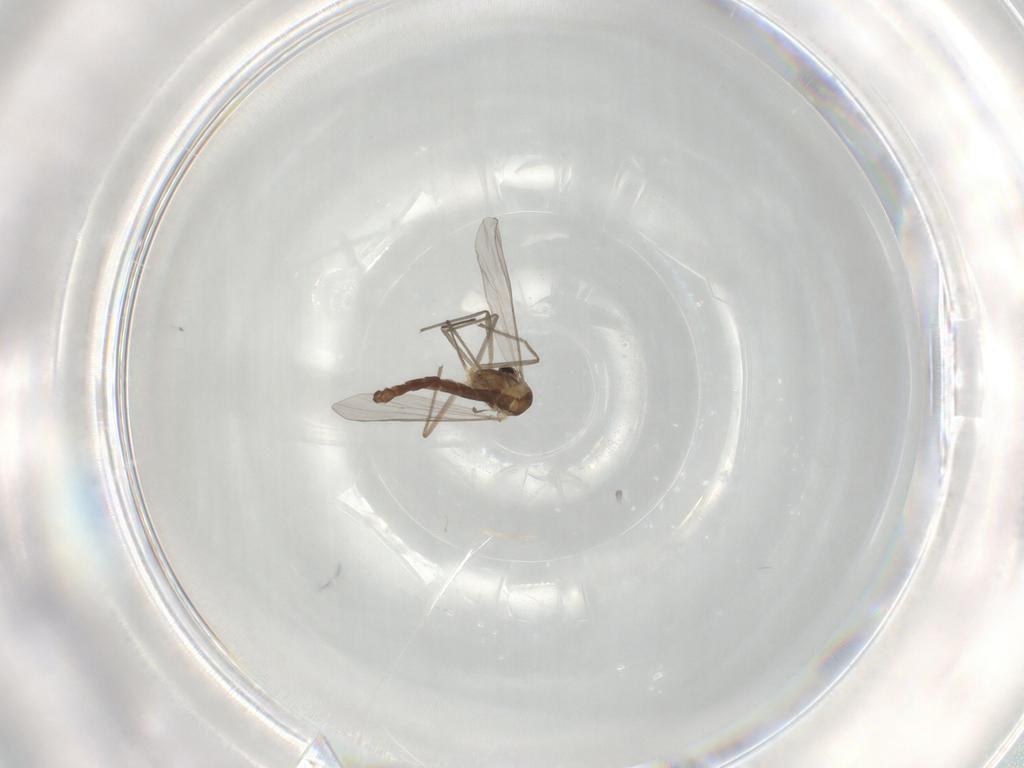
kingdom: Animalia
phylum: Arthropoda
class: Insecta
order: Diptera
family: Chironomidae
